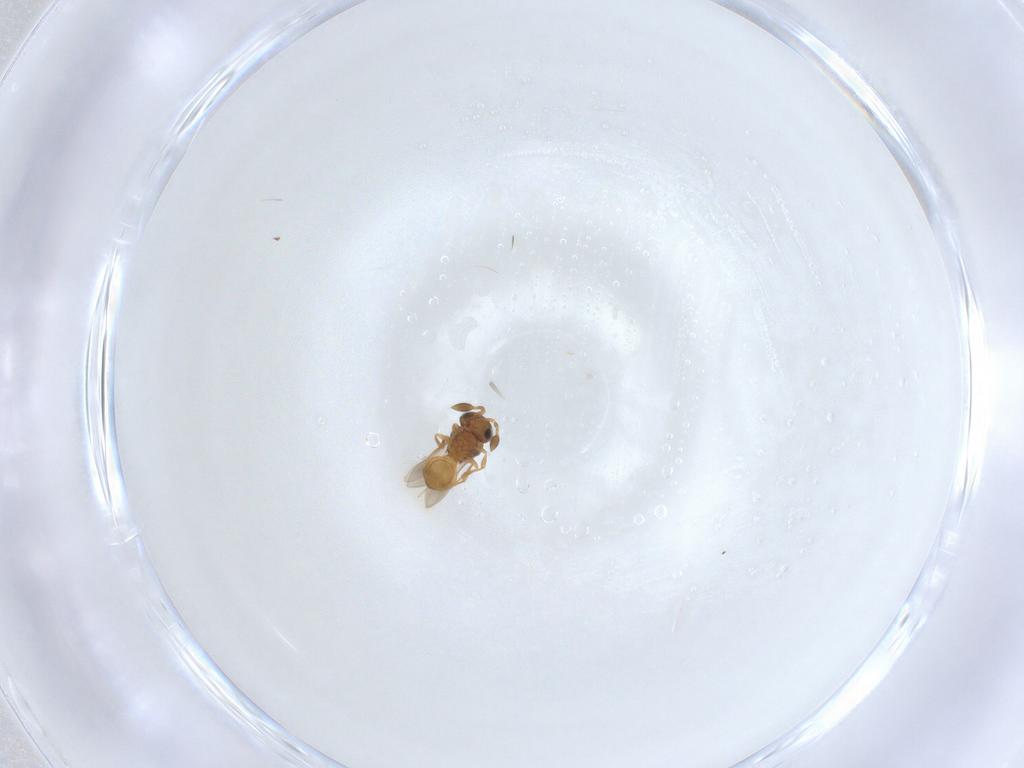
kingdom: Animalia
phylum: Arthropoda
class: Insecta
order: Hymenoptera
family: Scelionidae
